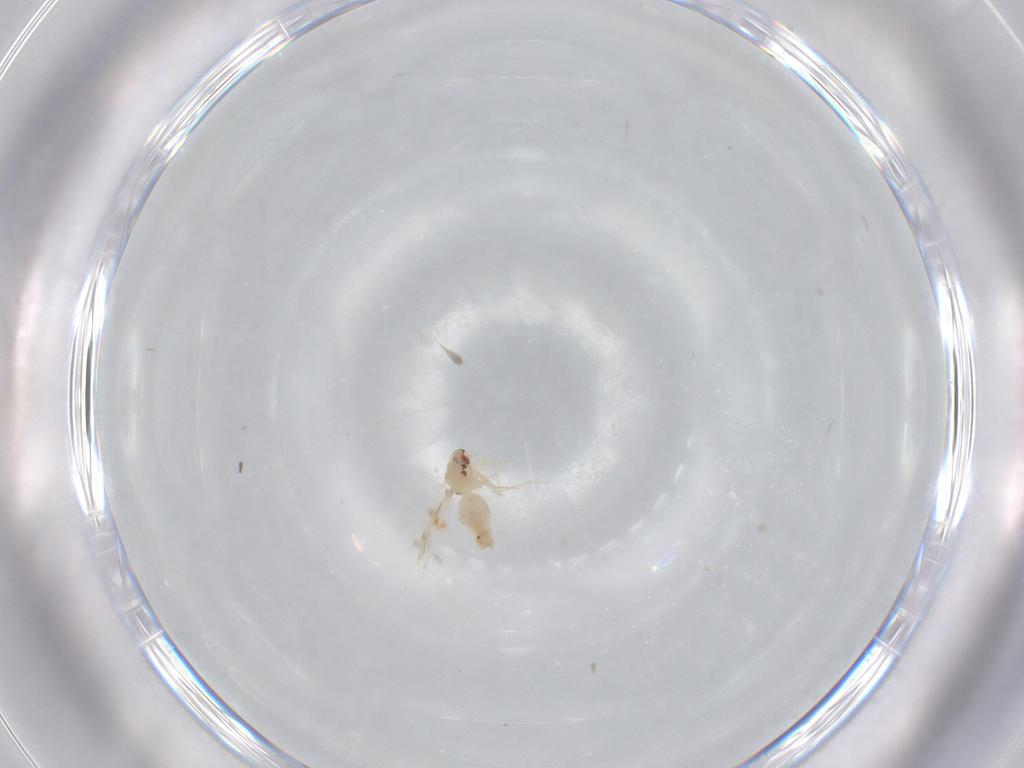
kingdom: Animalia
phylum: Arthropoda
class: Insecta
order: Hemiptera
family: Aleyrodidae
